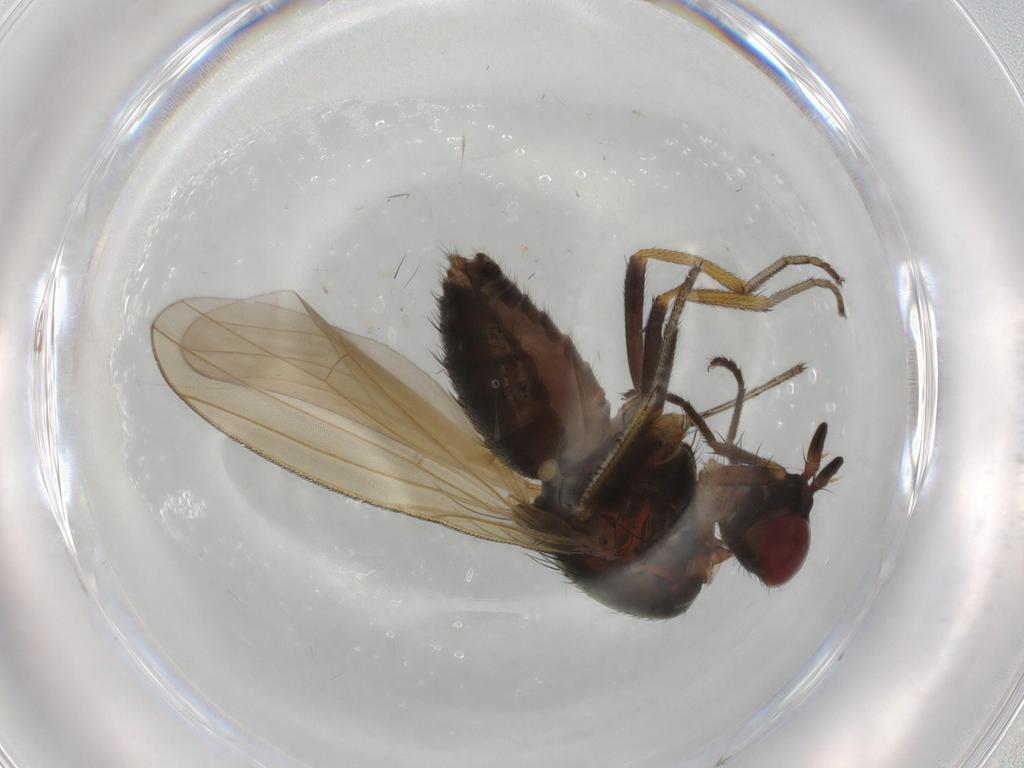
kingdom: Animalia
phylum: Arthropoda
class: Insecta
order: Diptera
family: Lauxaniidae
